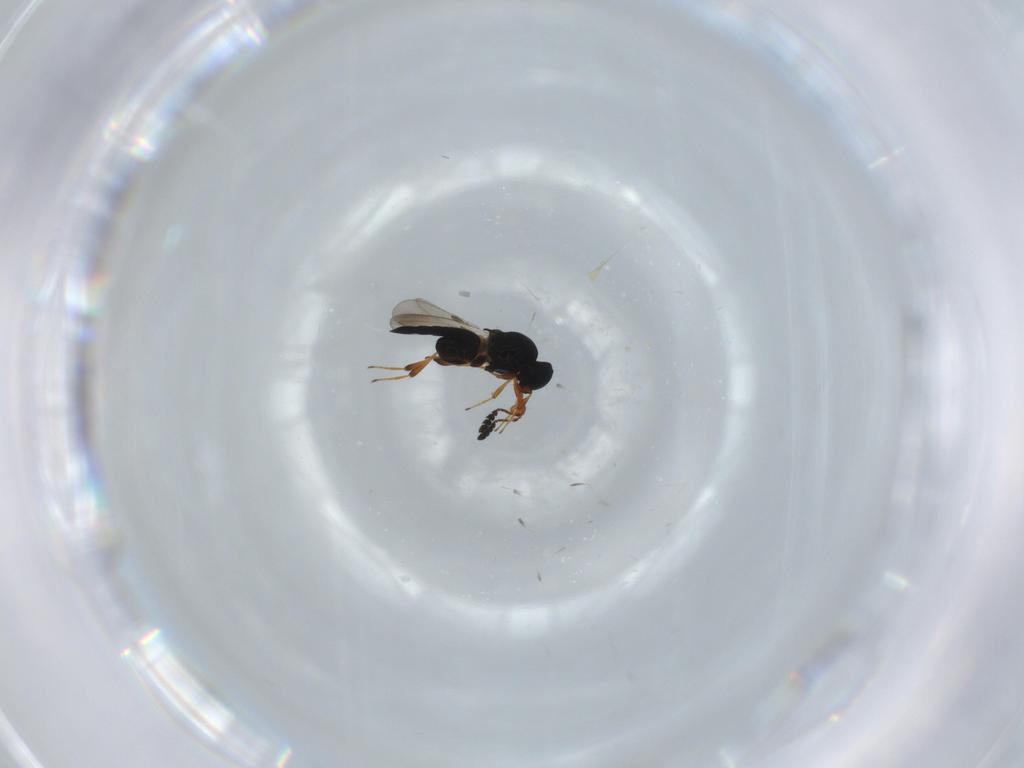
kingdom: Animalia
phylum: Arthropoda
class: Insecta
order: Hymenoptera
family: Platygastridae
